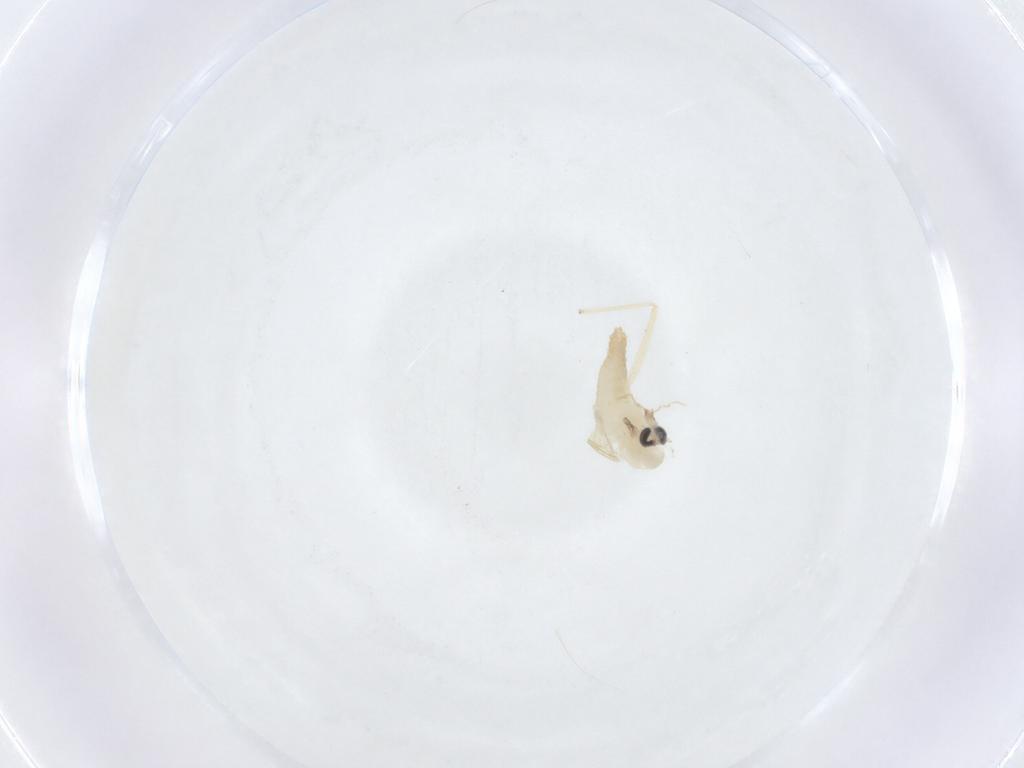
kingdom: Animalia
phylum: Arthropoda
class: Insecta
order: Diptera
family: Chironomidae
